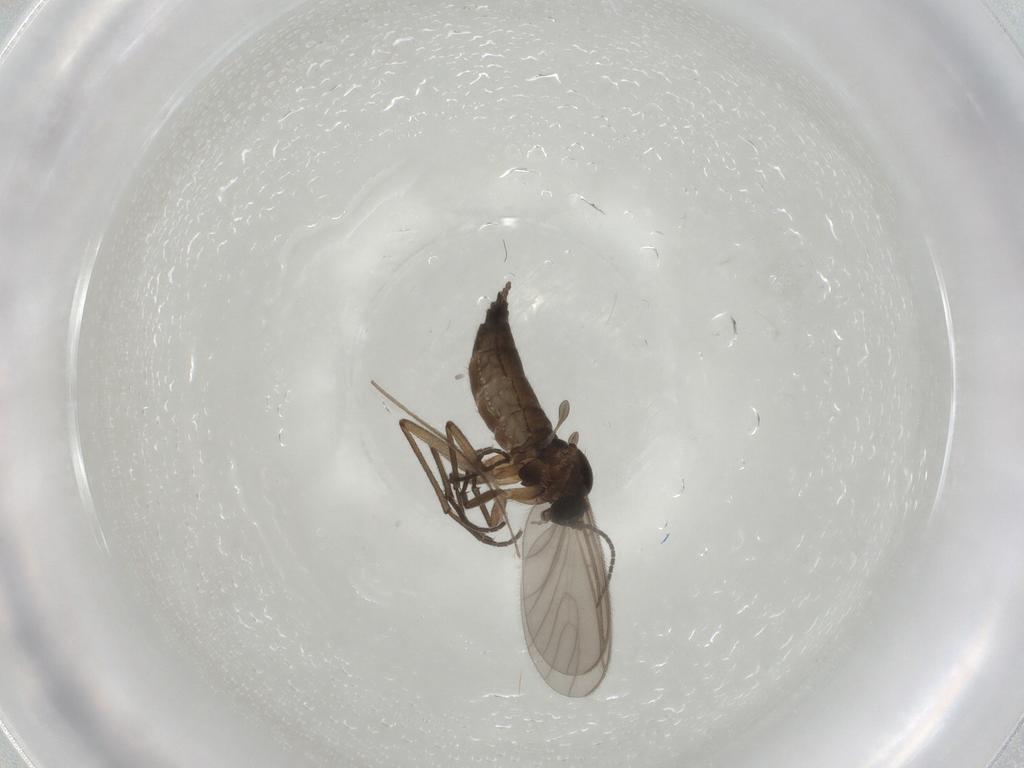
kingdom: Animalia
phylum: Arthropoda
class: Insecta
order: Diptera
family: Sciaridae
